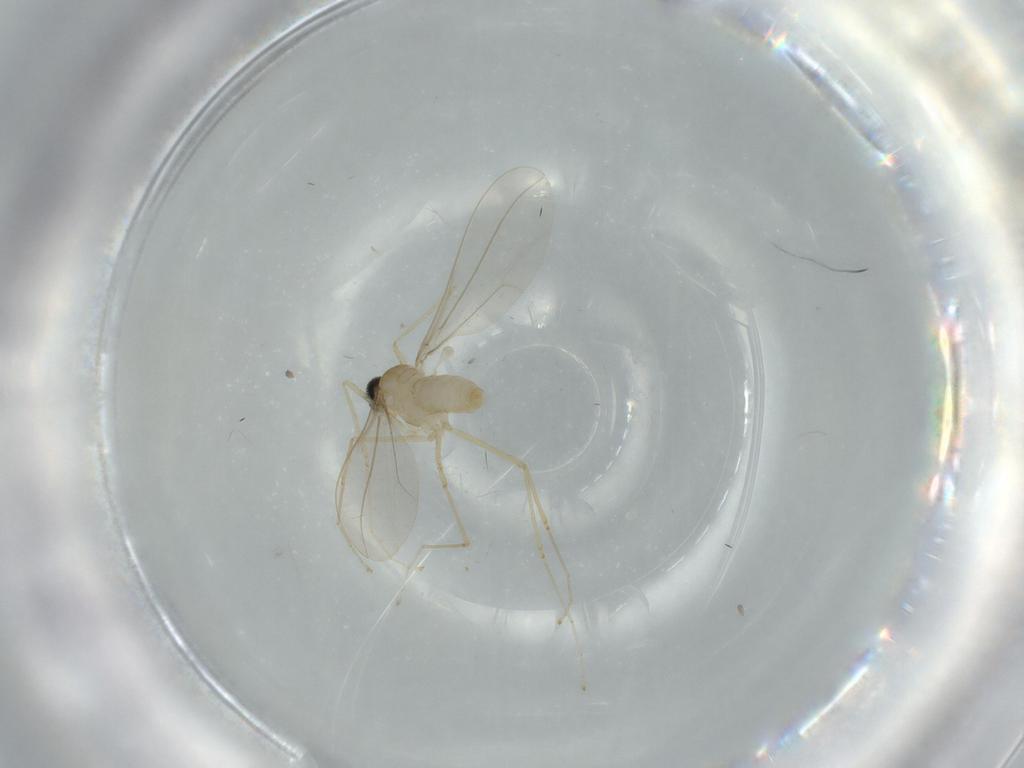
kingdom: Animalia
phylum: Arthropoda
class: Insecta
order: Diptera
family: Cecidomyiidae
